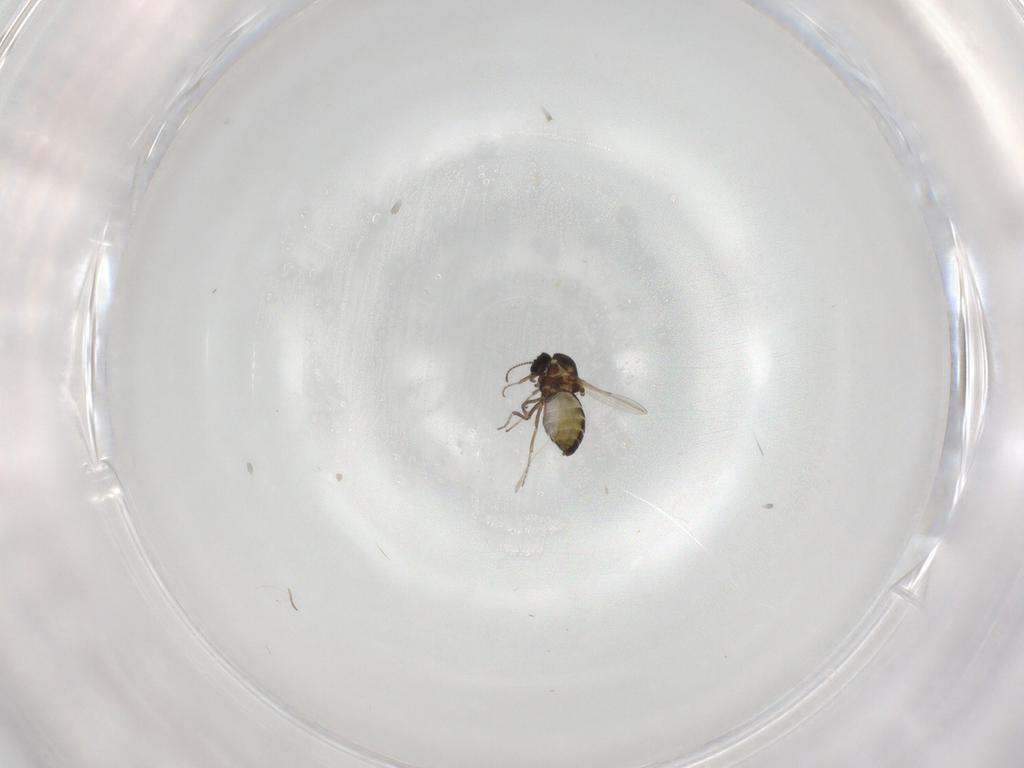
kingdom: Animalia
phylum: Arthropoda
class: Insecta
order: Diptera
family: Ceratopogonidae
